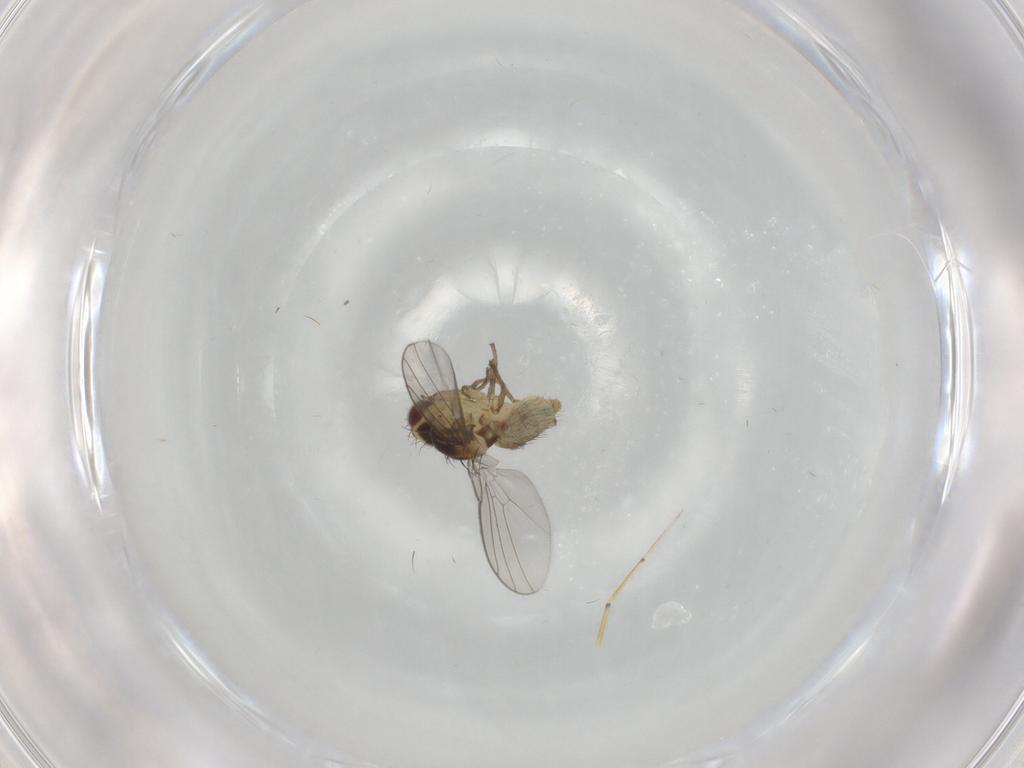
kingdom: Animalia
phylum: Arthropoda
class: Insecta
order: Diptera
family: Agromyzidae
